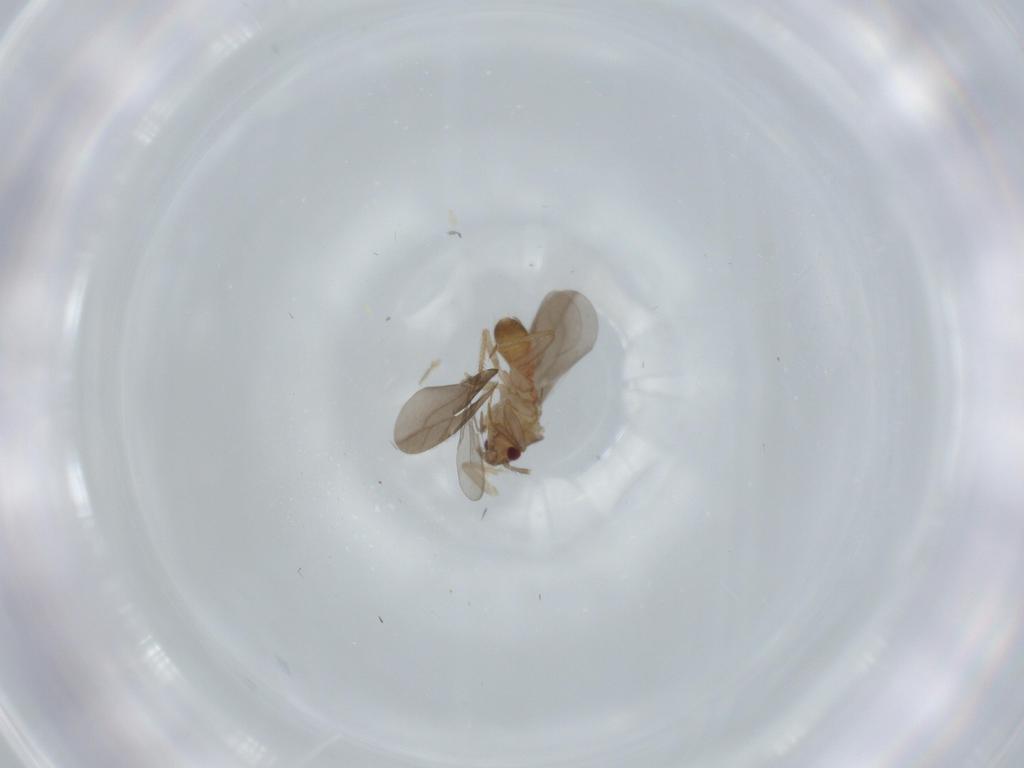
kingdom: Animalia
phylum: Arthropoda
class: Insecta
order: Hemiptera
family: Ceratocombidae
